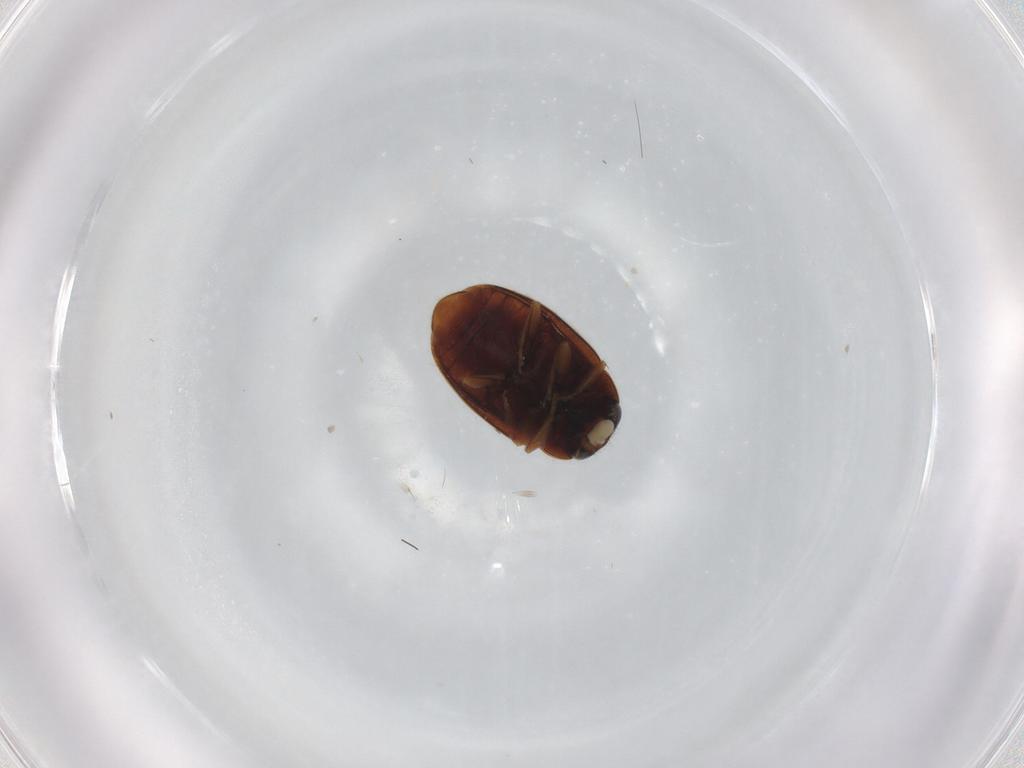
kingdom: Animalia
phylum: Arthropoda
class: Insecta
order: Coleoptera
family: Coccinellidae
